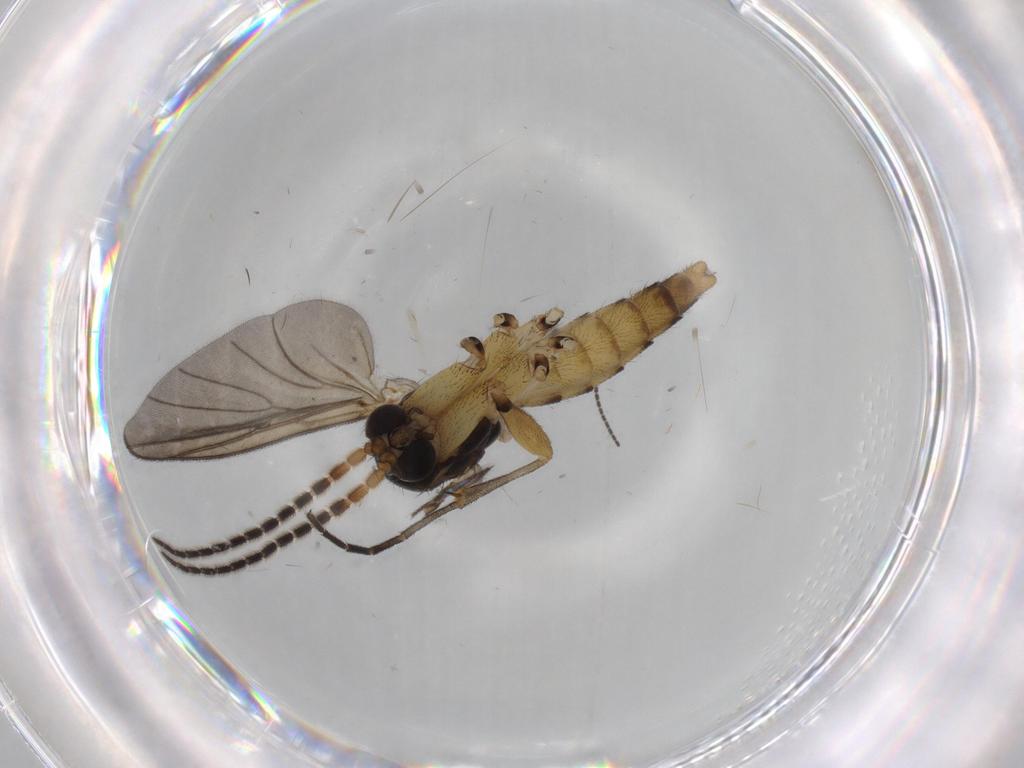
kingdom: Animalia
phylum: Arthropoda
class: Insecta
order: Diptera
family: Sciaridae
